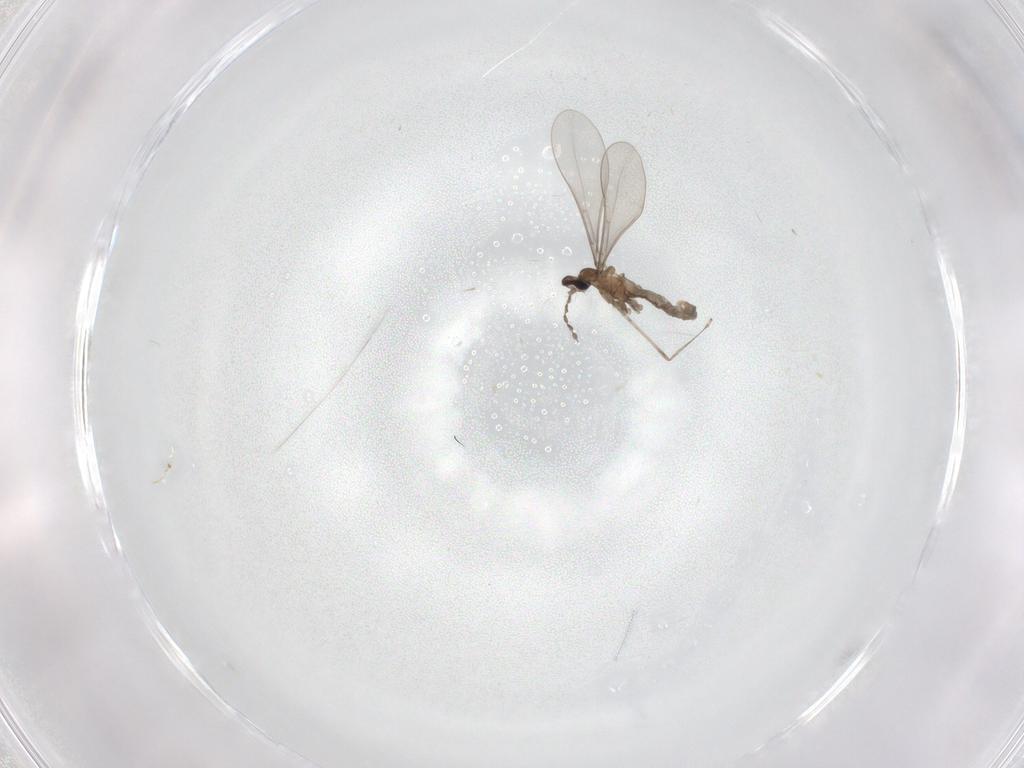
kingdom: Animalia
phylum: Arthropoda
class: Insecta
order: Diptera
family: Cecidomyiidae
